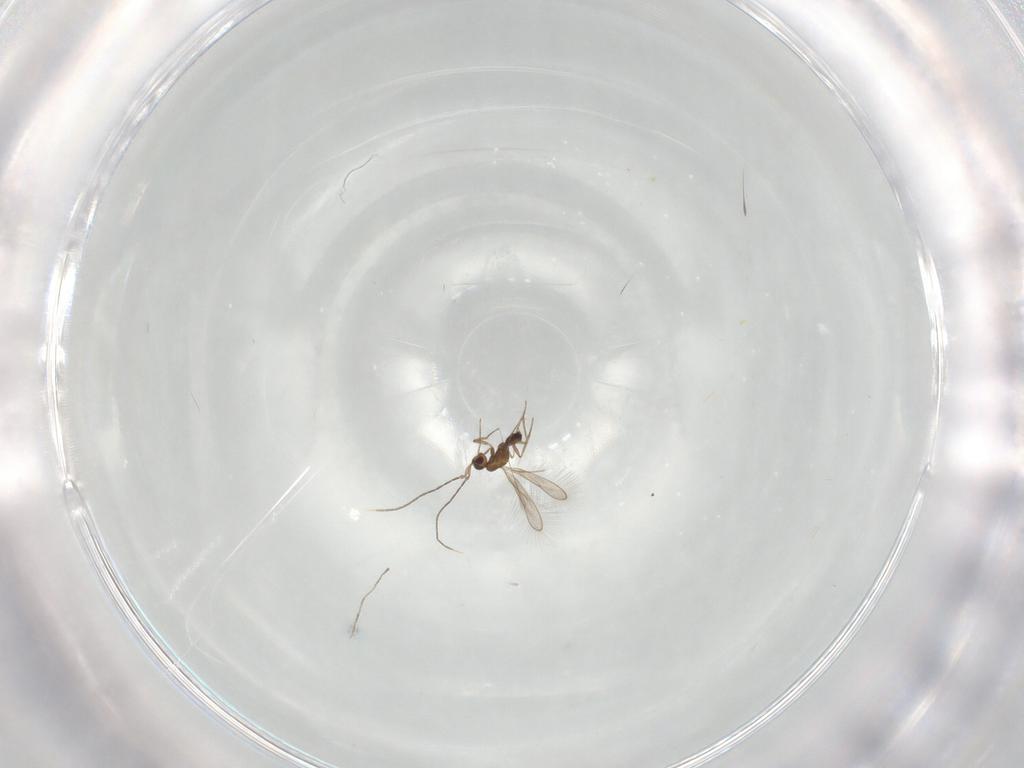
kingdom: Animalia
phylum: Arthropoda
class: Insecta
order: Diptera
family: Cecidomyiidae
